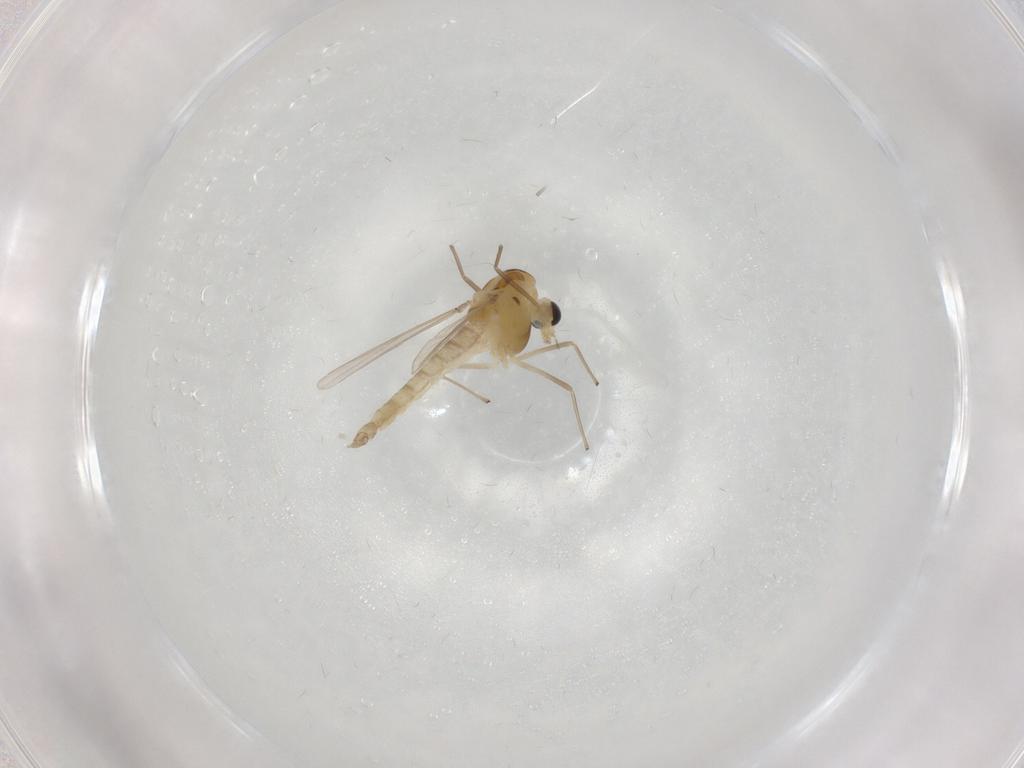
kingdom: Animalia
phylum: Arthropoda
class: Insecta
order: Diptera
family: Chironomidae
